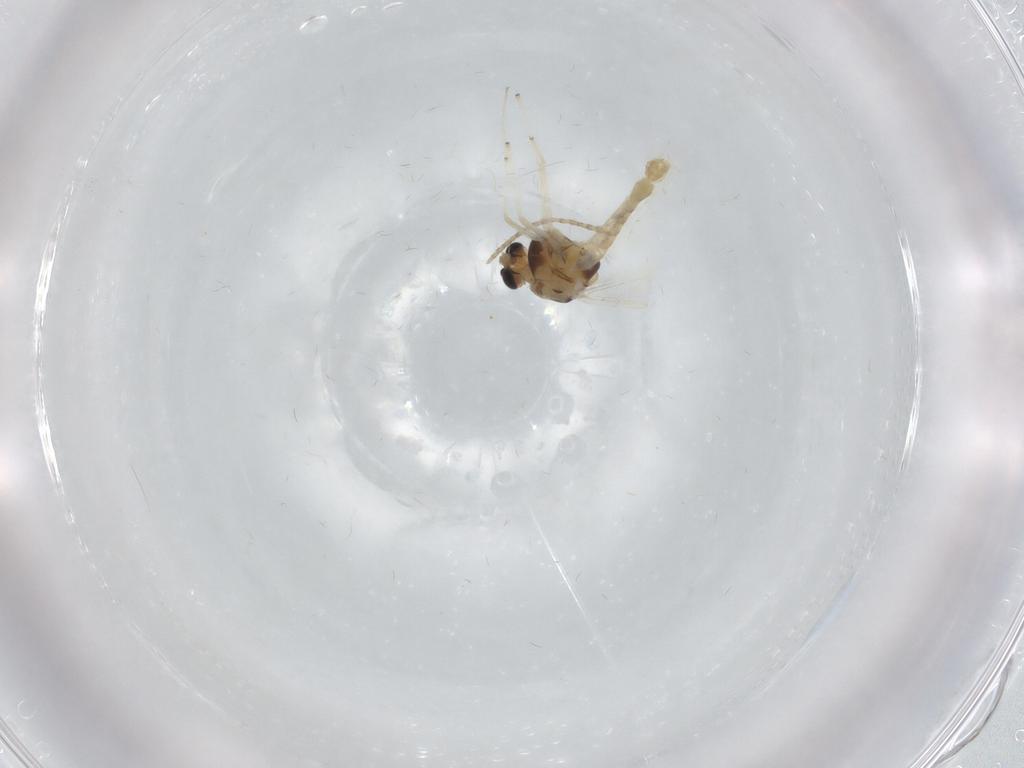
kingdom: Animalia
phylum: Arthropoda
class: Insecta
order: Diptera
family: Chironomidae
